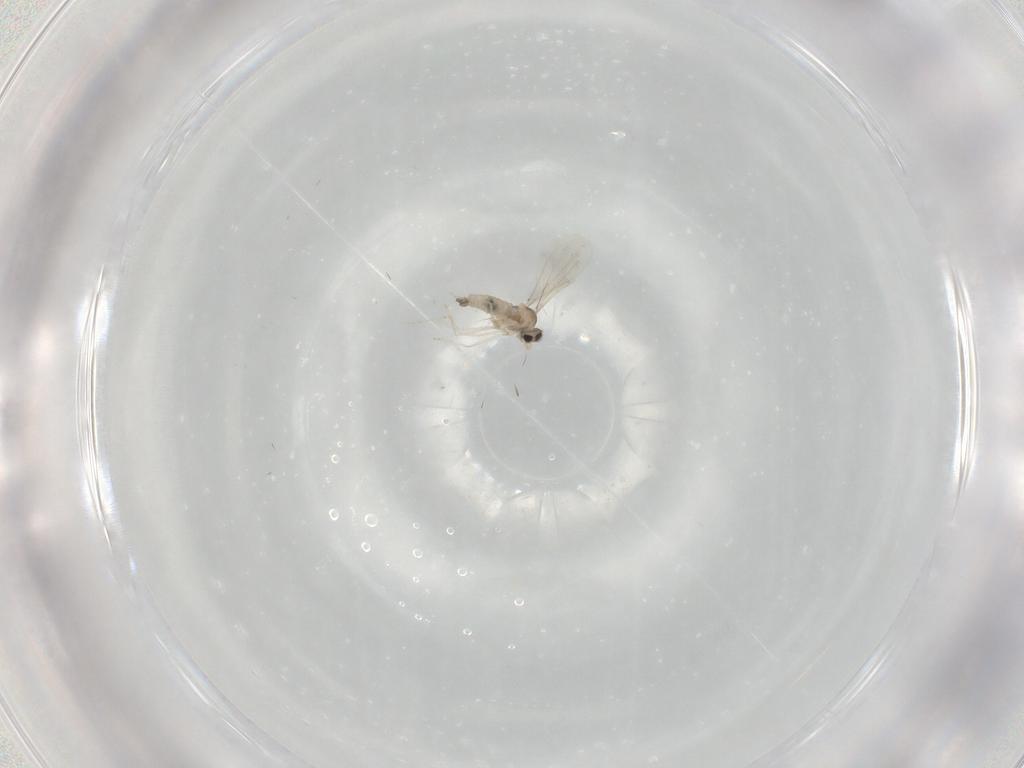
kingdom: Animalia
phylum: Arthropoda
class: Insecta
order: Diptera
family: Cecidomyiidae
